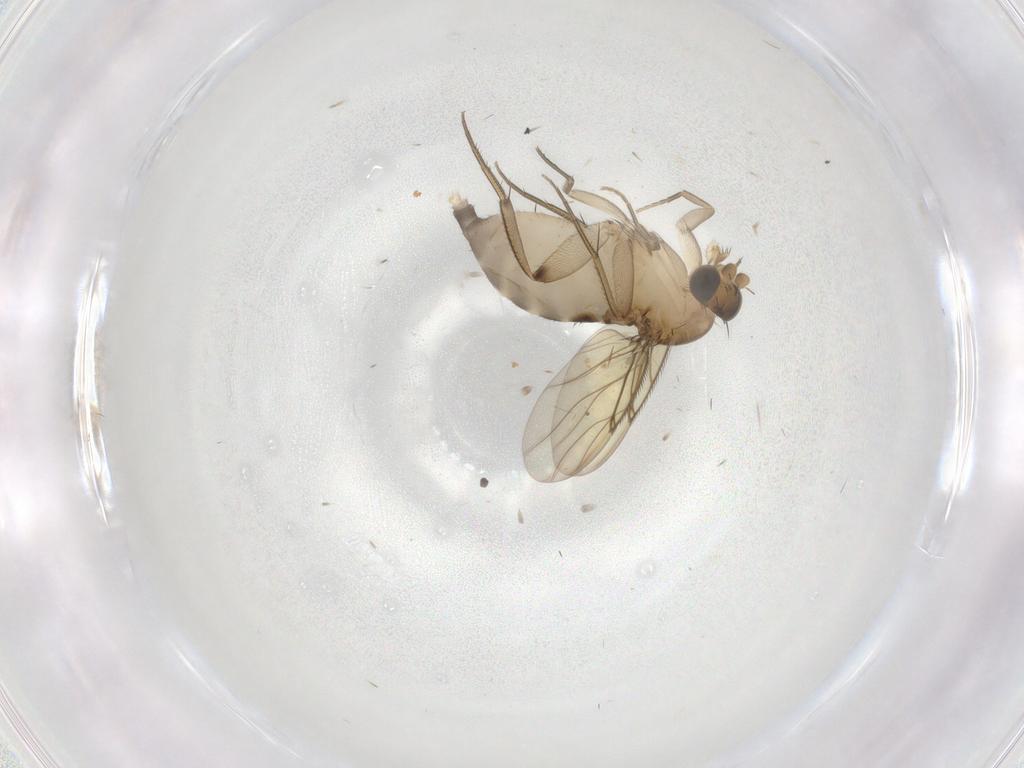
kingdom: Animalia
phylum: Arthropoda
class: Insecta
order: Diptera
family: Phoridae
